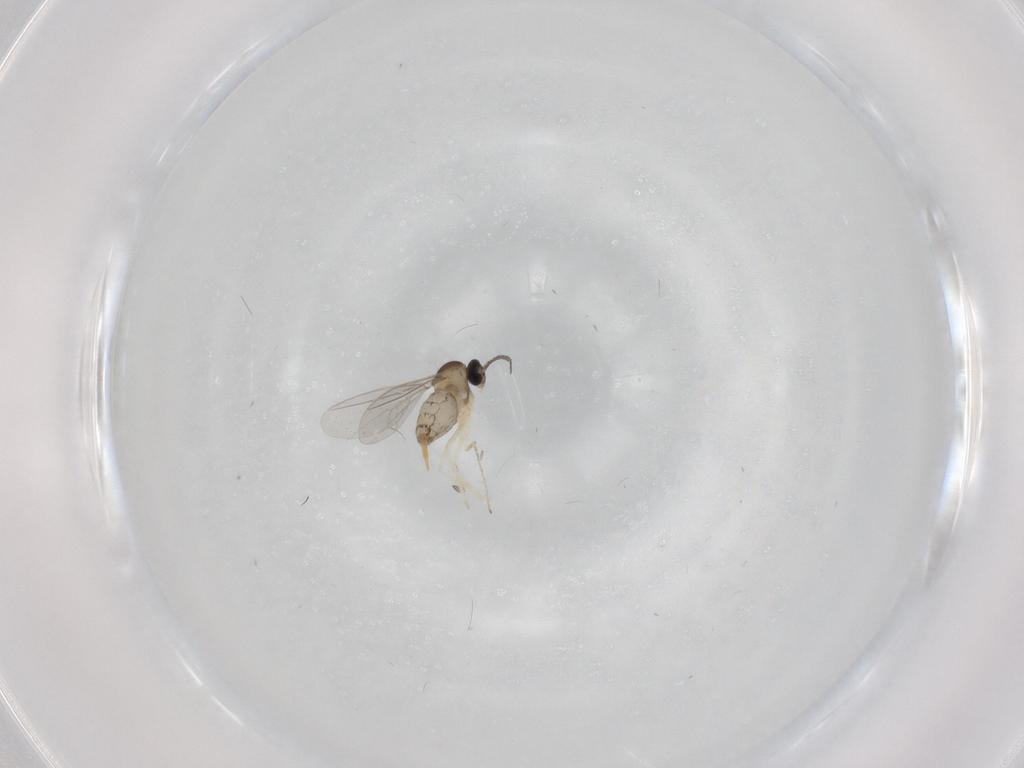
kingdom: Animalia
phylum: Arthropoda
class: Insecta
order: Diptera
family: Cecidomyiidae
